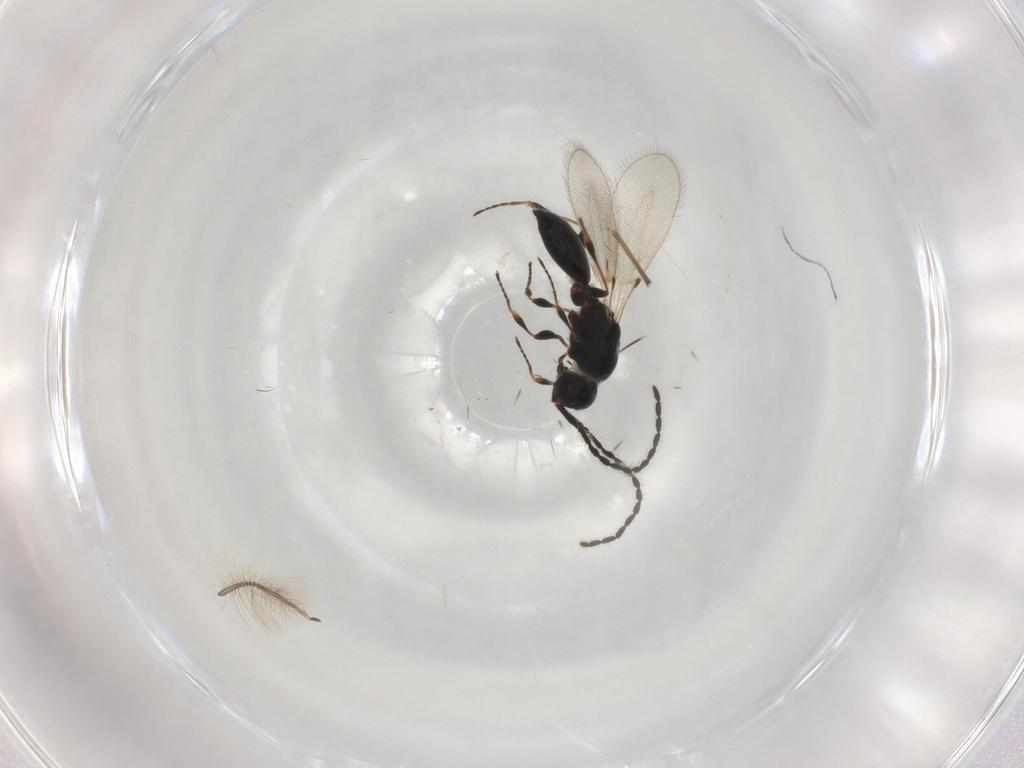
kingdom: Animalia
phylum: Arthropoda
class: Insecta
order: Hymenoptera
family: Diapriidae
